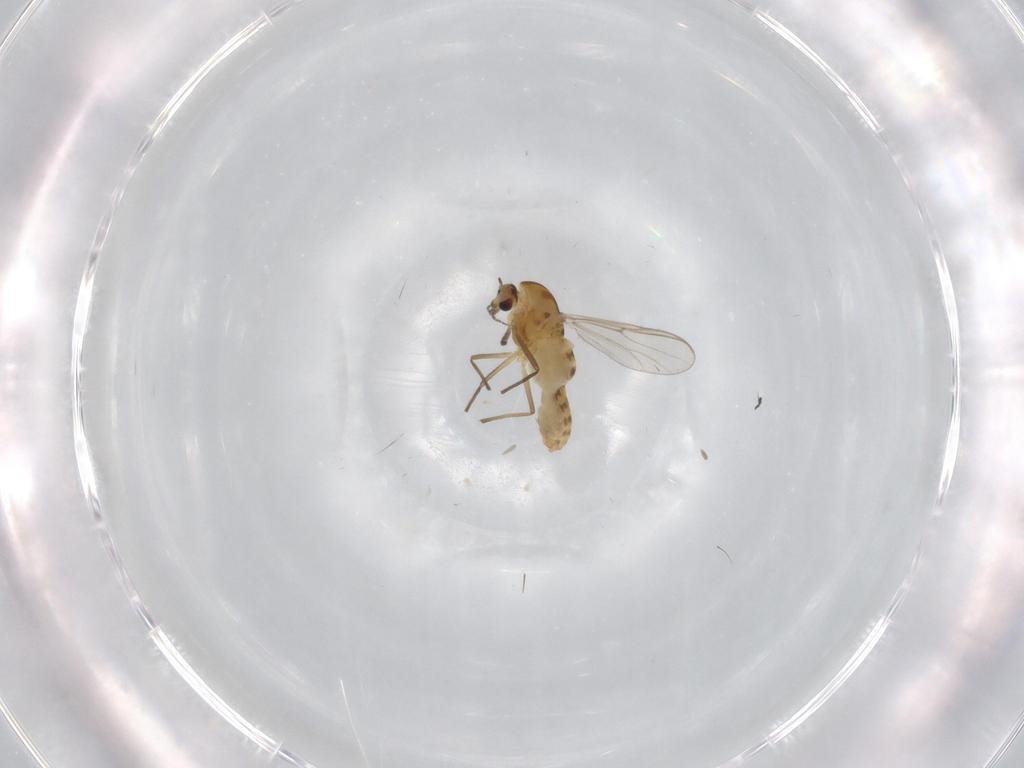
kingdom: Animalia
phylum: Arthropoda
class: Insecta
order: Diptera
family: Chironomidae
